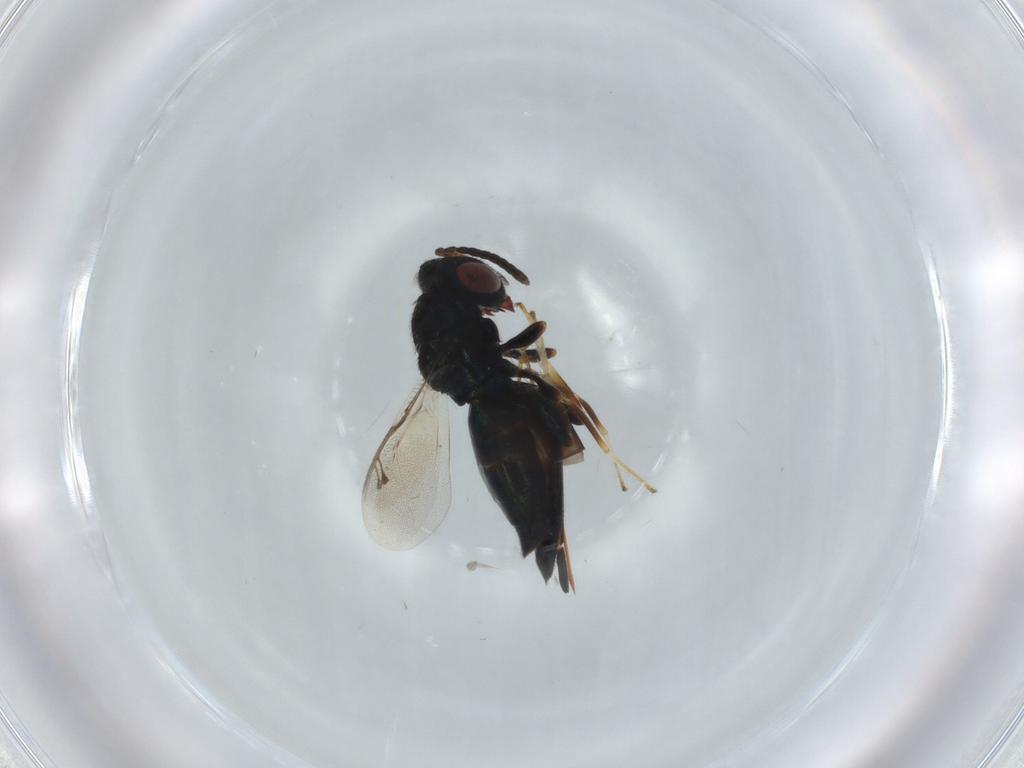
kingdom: Animalia
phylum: Arthropoda
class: Insecta
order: Hymenoptera
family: Pteromalidae
